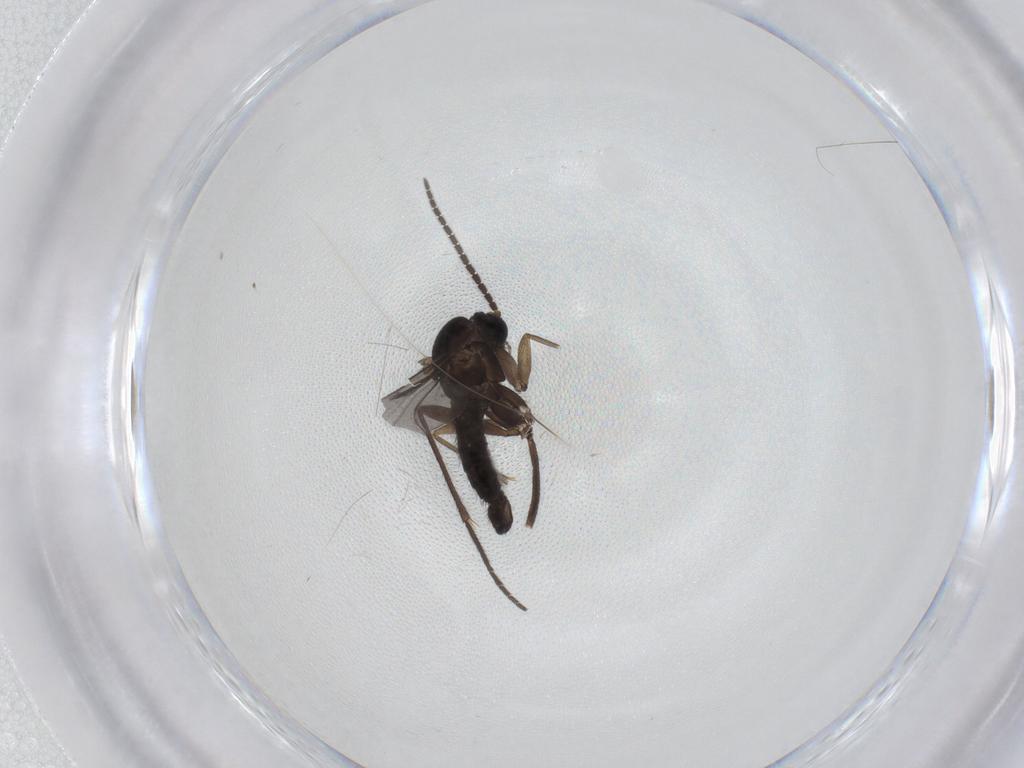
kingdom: Animalia
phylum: Arthropoda
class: Insecta
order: Diptera
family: Sciaridae
